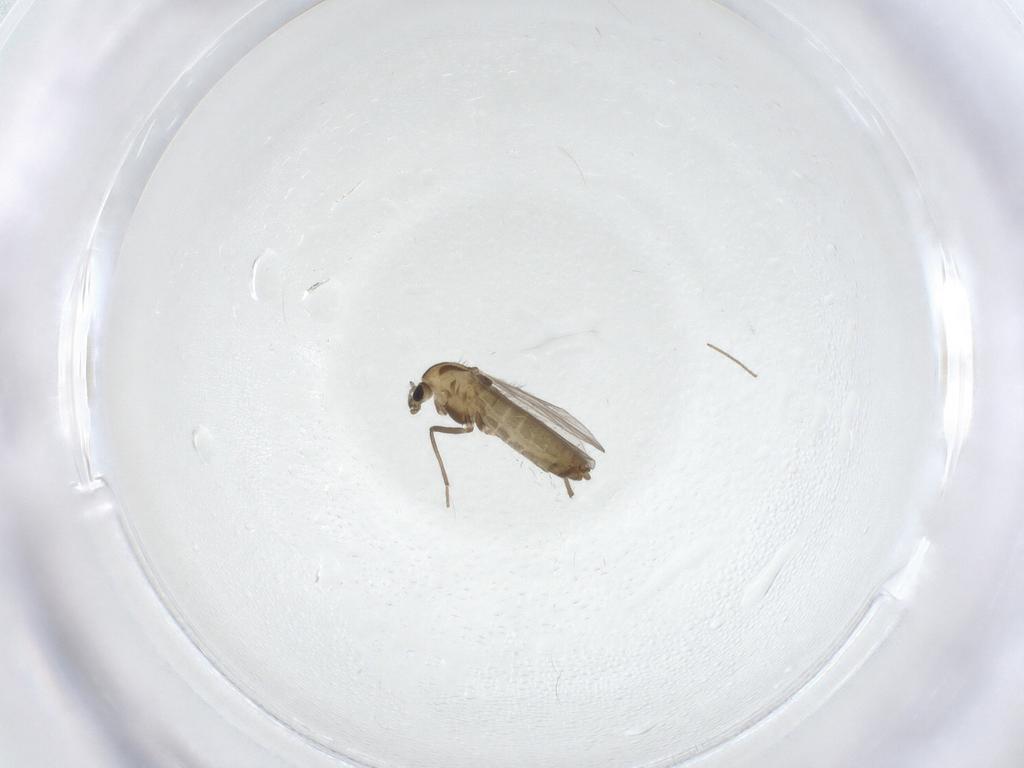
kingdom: Animalia
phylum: Arthropoda
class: Insecta
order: Diptera
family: Chironomidae
